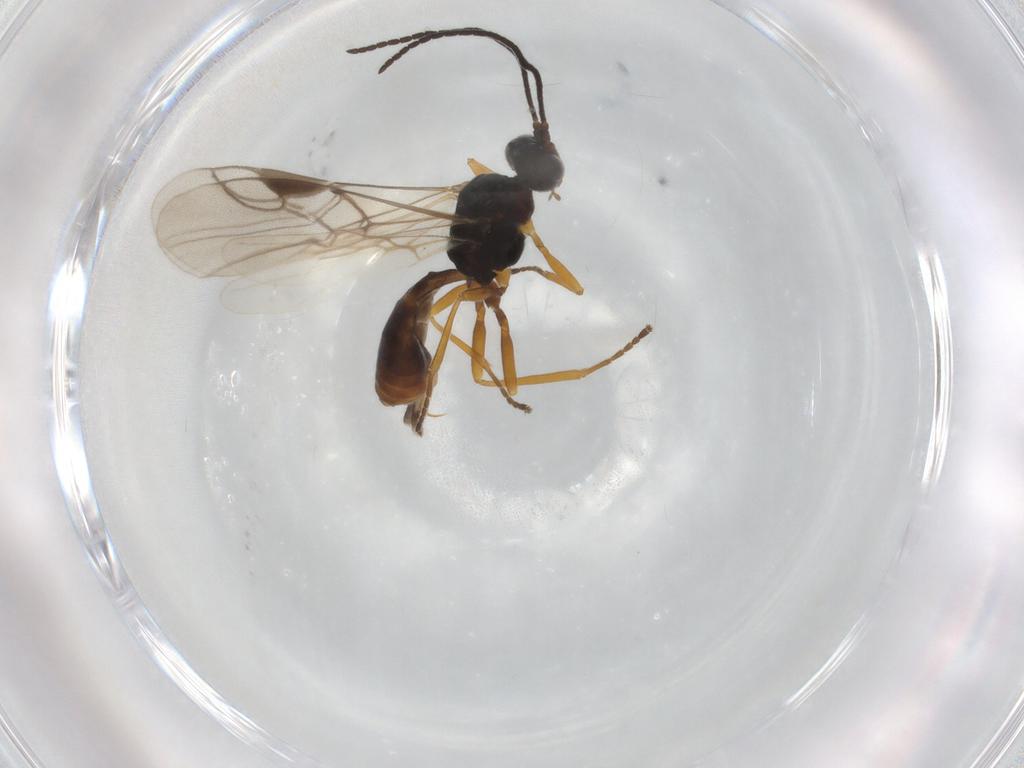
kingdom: Animalia
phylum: Arthropoda
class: Insecta
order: Hymenoptera
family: Braconidae
